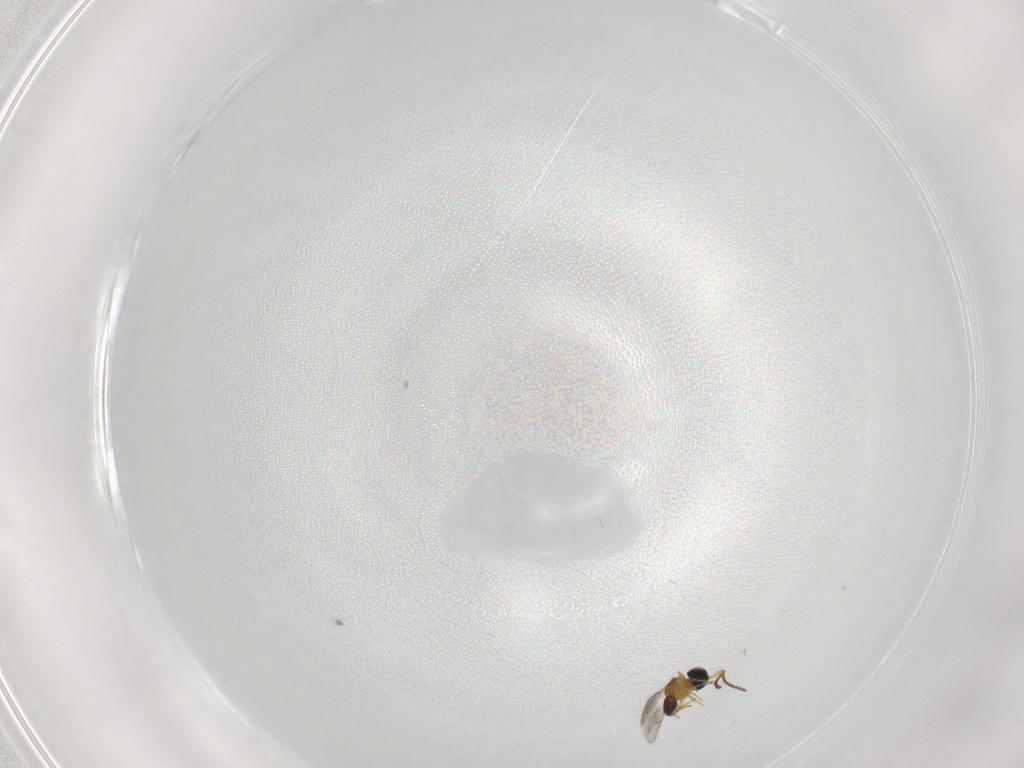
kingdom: Animalia
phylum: Arthropoda
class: Insecta
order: Hymenoptera
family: Scelionidae
